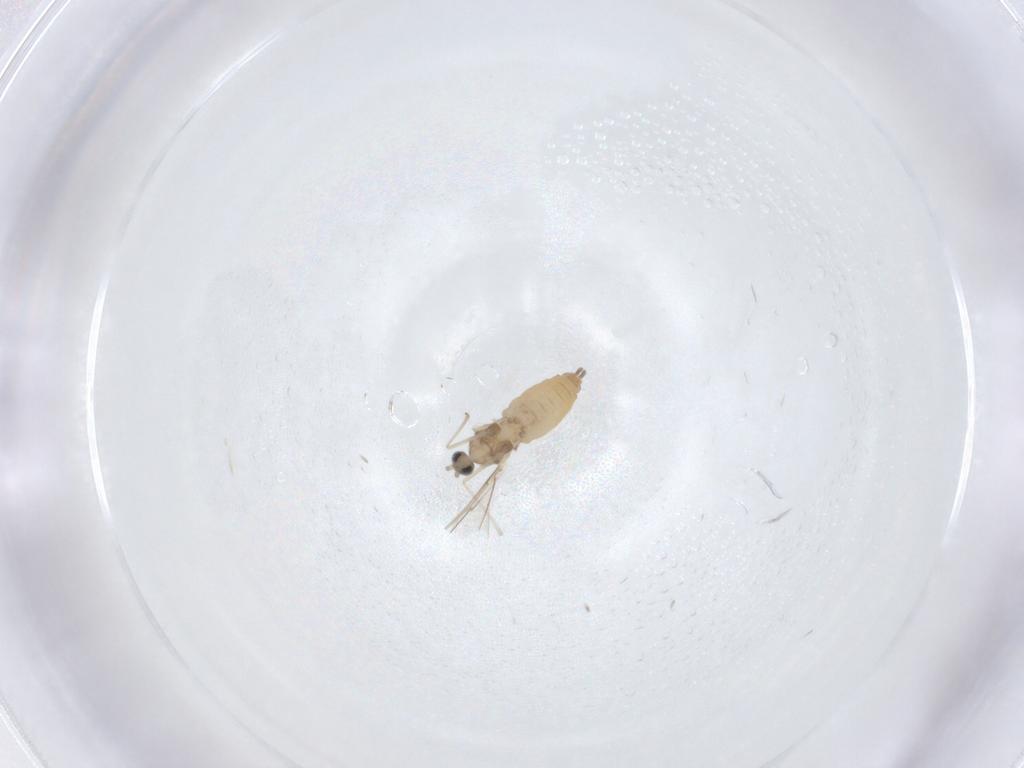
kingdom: Animalia
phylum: Arthropoda
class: Insecta
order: Diptera
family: Cecidomyiidae
